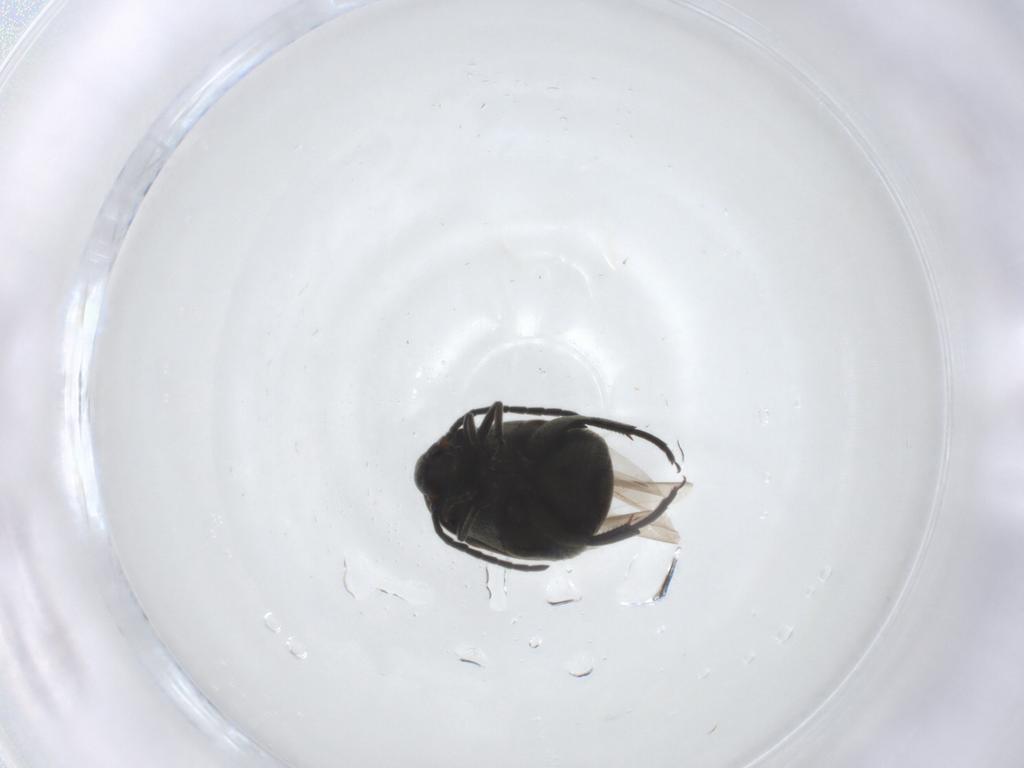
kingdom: Animalia
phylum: Arthropoda
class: Insecta
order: Coleoptera
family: Chrysomelidae
